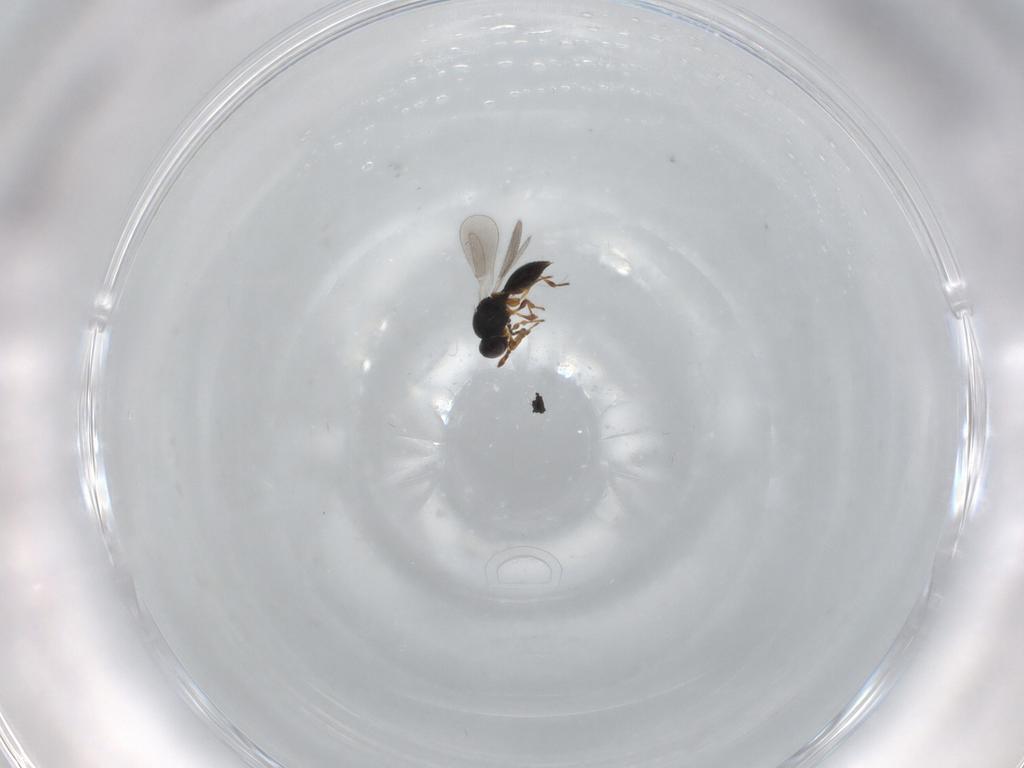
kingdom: Animalia
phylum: Arthropoda
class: Insecta
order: Hymenoptera
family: Platygastridae
